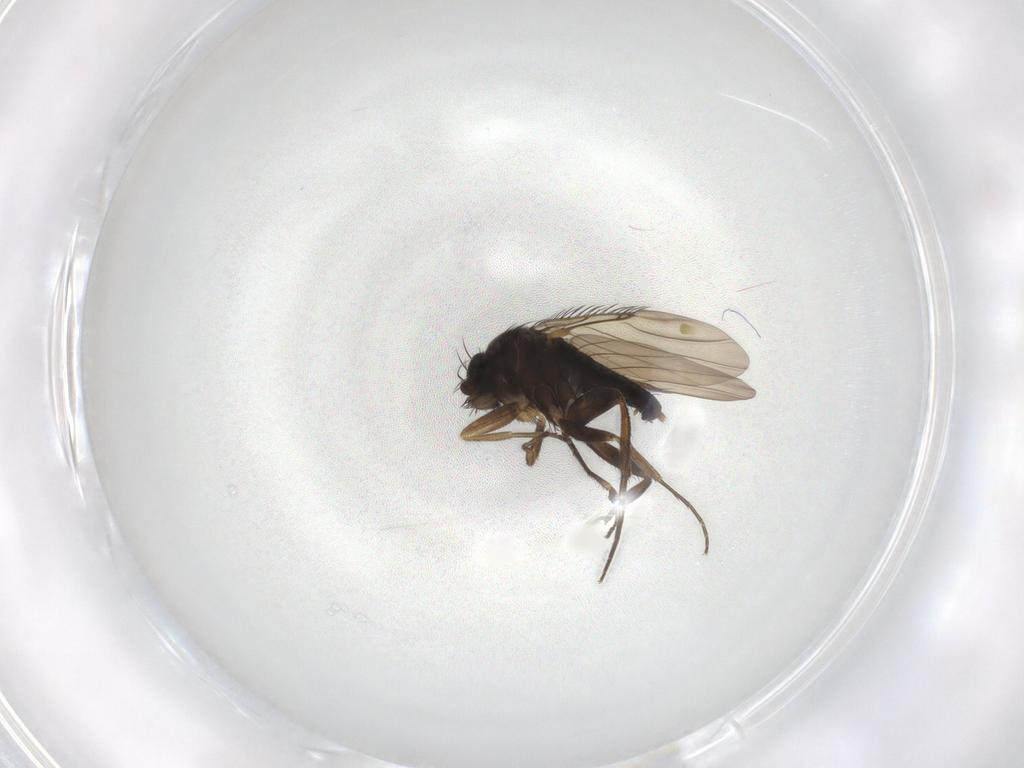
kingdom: Animalia
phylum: Arthropoda
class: Insecta
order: Diptera
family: Phoridae
